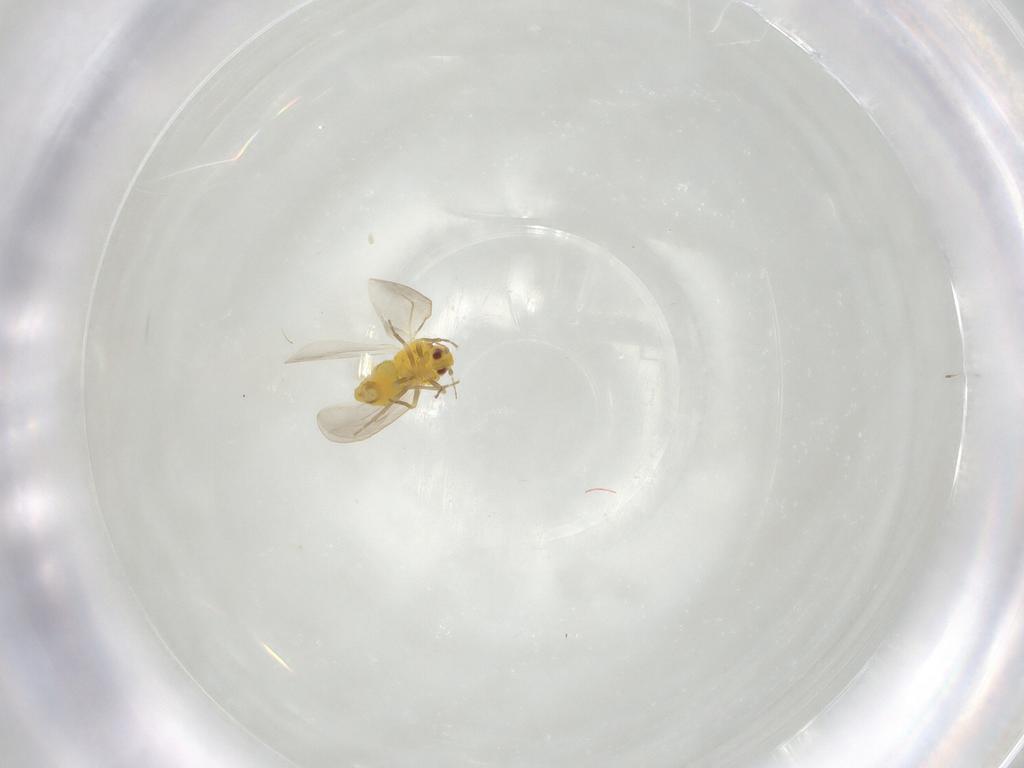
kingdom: Animalia
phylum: Arthropoda
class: Insecta
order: Hemiptera
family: Aleyrodidae
